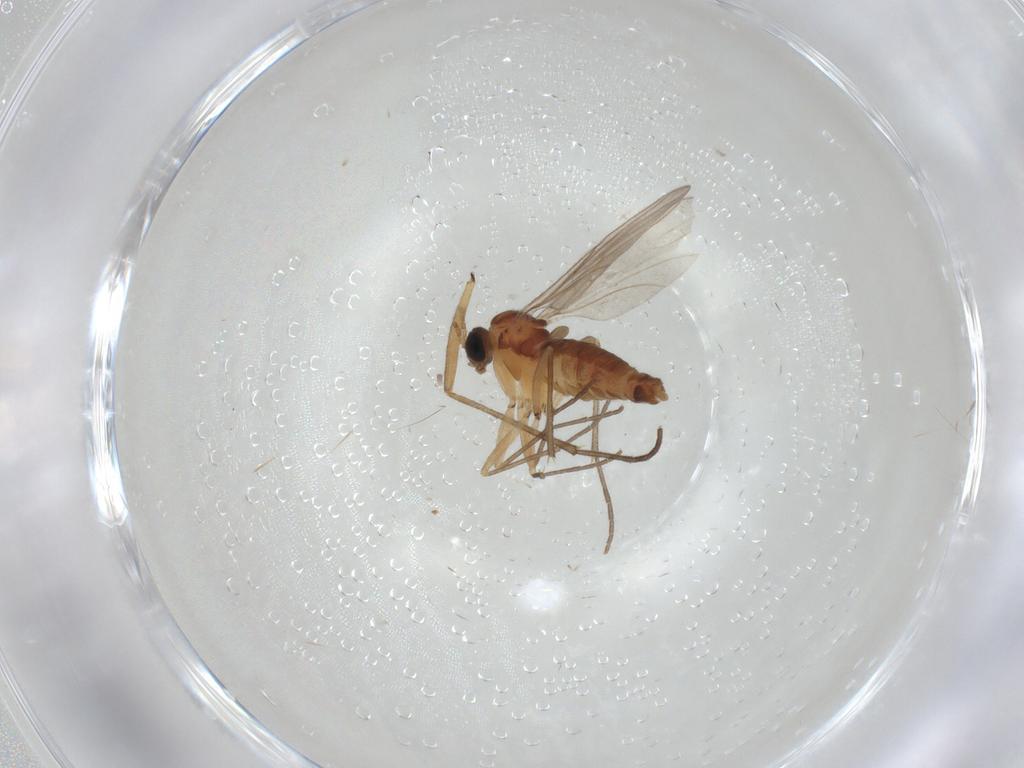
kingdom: Animalia
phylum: Arthropoda
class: Insecta
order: Diptera
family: Sciaridae
